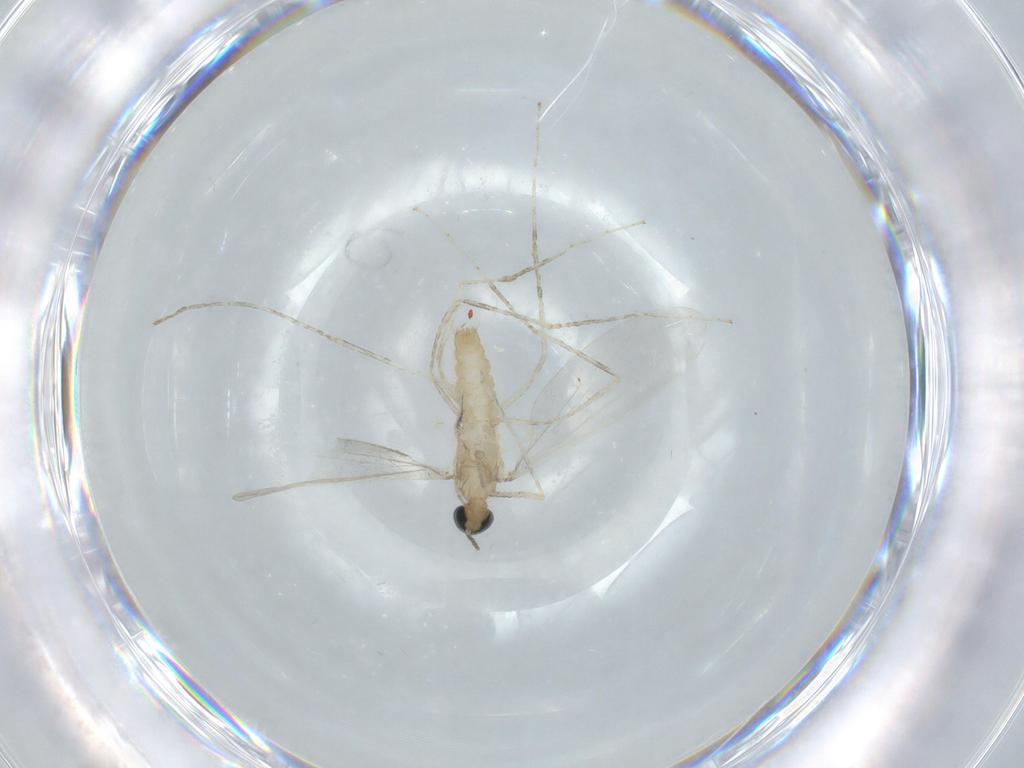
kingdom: Animalia
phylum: Arthropoda
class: Insecta
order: Diptera
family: Cecidomyiidae
